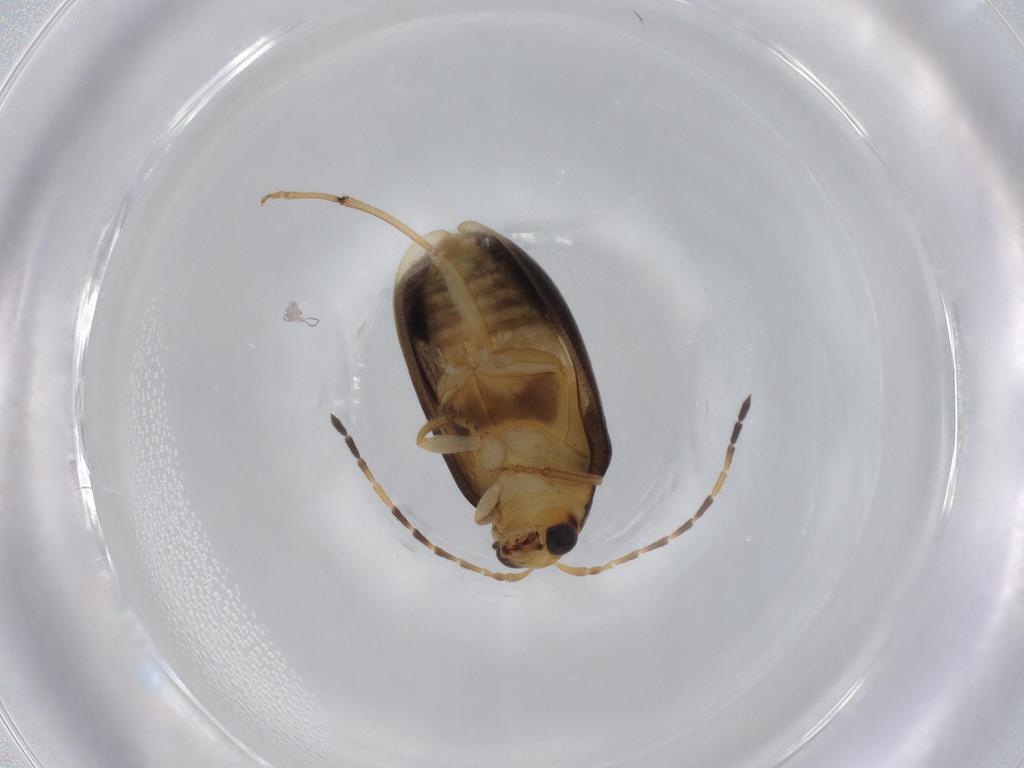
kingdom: Animalia
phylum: Arthropoda
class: Insecta
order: Coleoptera
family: Chrysomelidae
